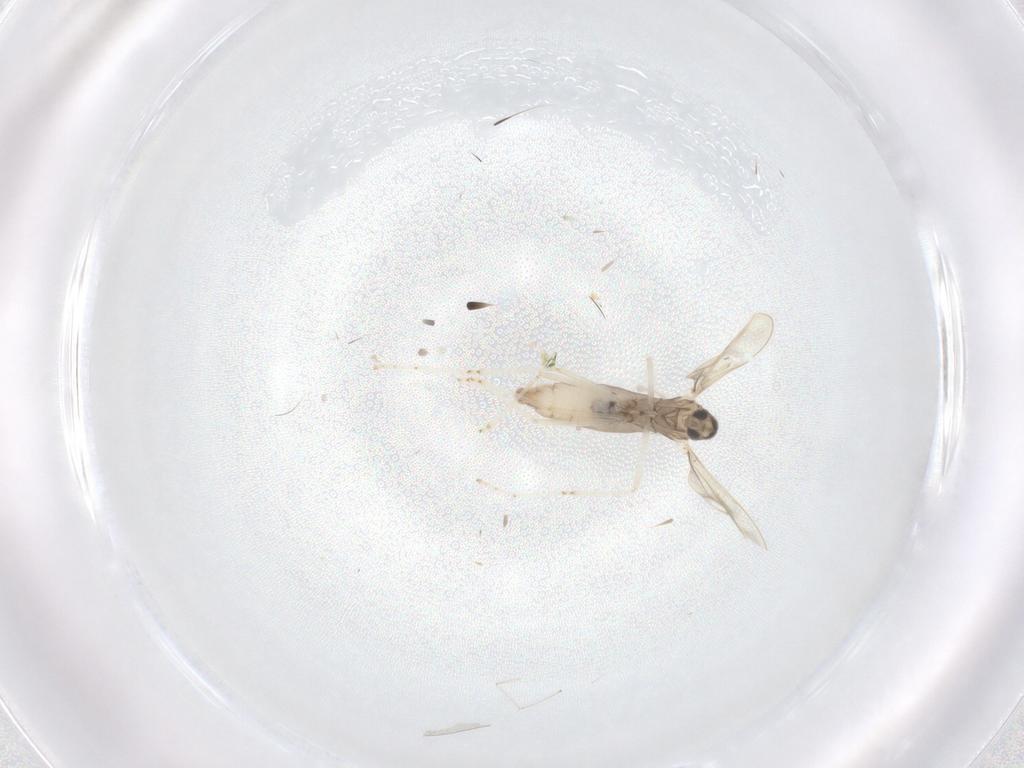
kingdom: Animalia
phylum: Arthropoda
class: Insecta
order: Diptera
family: Cecidomyiidae
